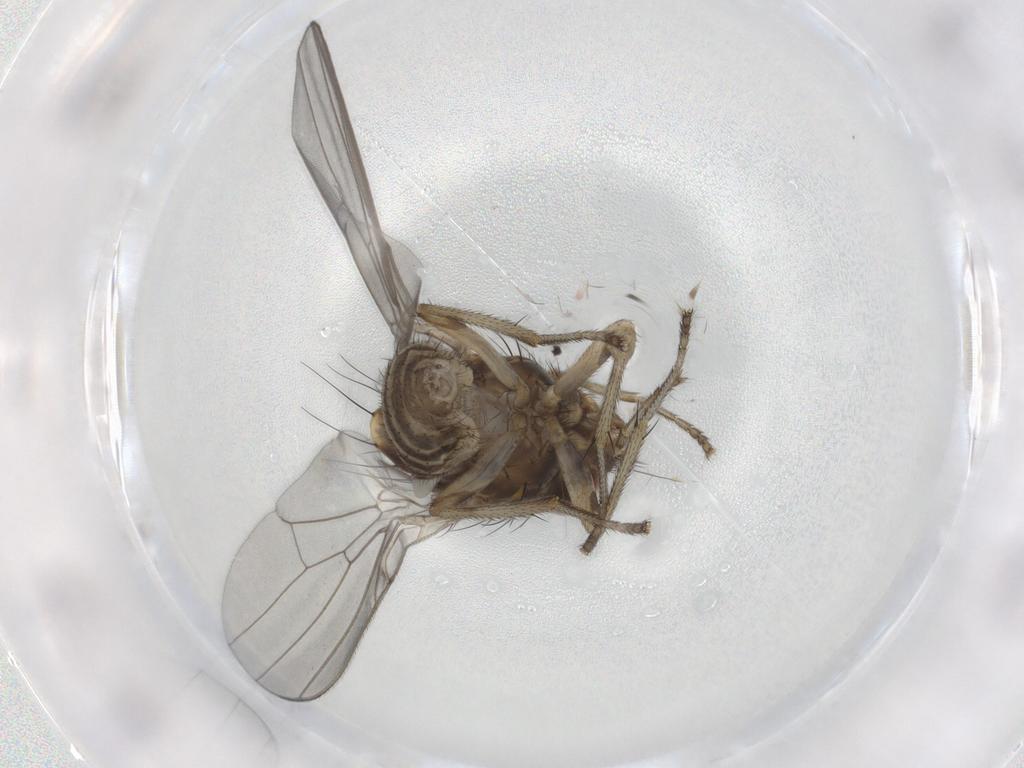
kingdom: Animalia
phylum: Arthropoda
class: Insecta
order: Diptera
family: Lauxaniidae
